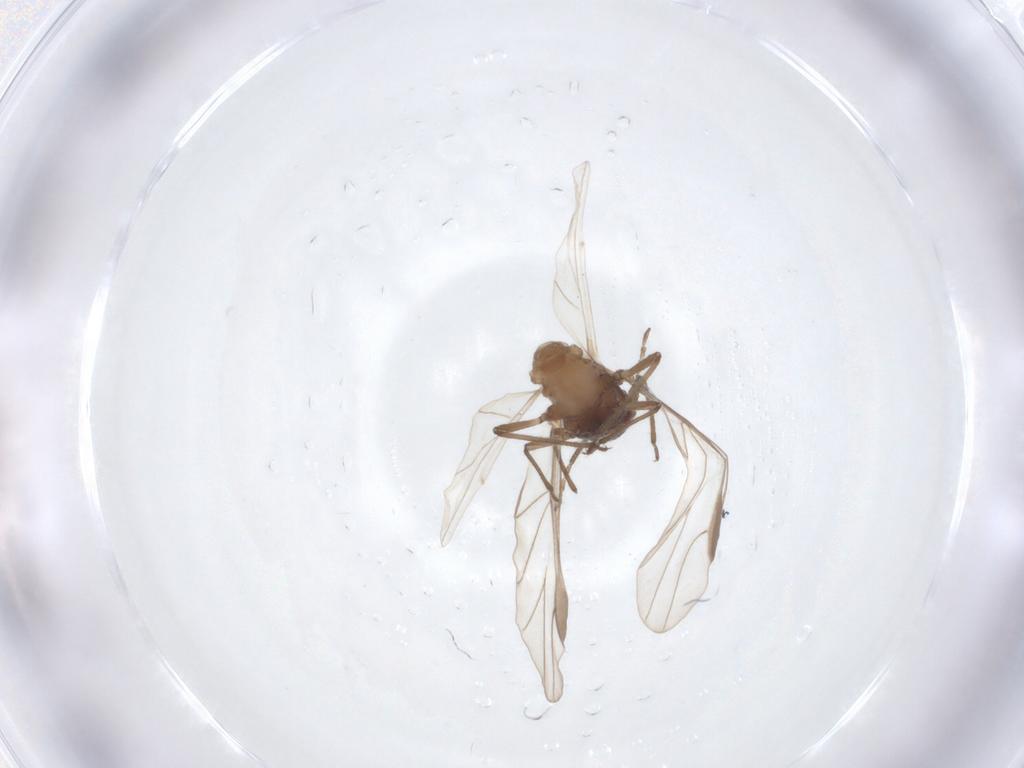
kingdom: Animalia
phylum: Arthropoda
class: Insecta
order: Hemiptera
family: Aphididae
